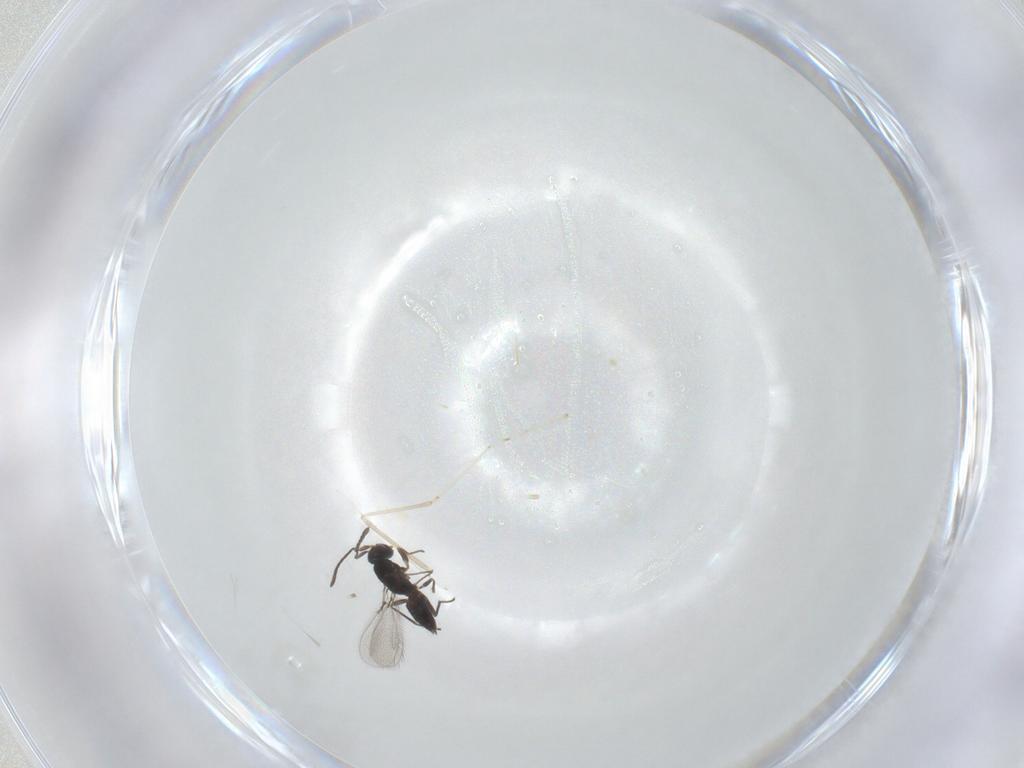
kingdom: Animalia
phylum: Arthropoda
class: Insecta
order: Hymenoptera
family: Mymaridae
